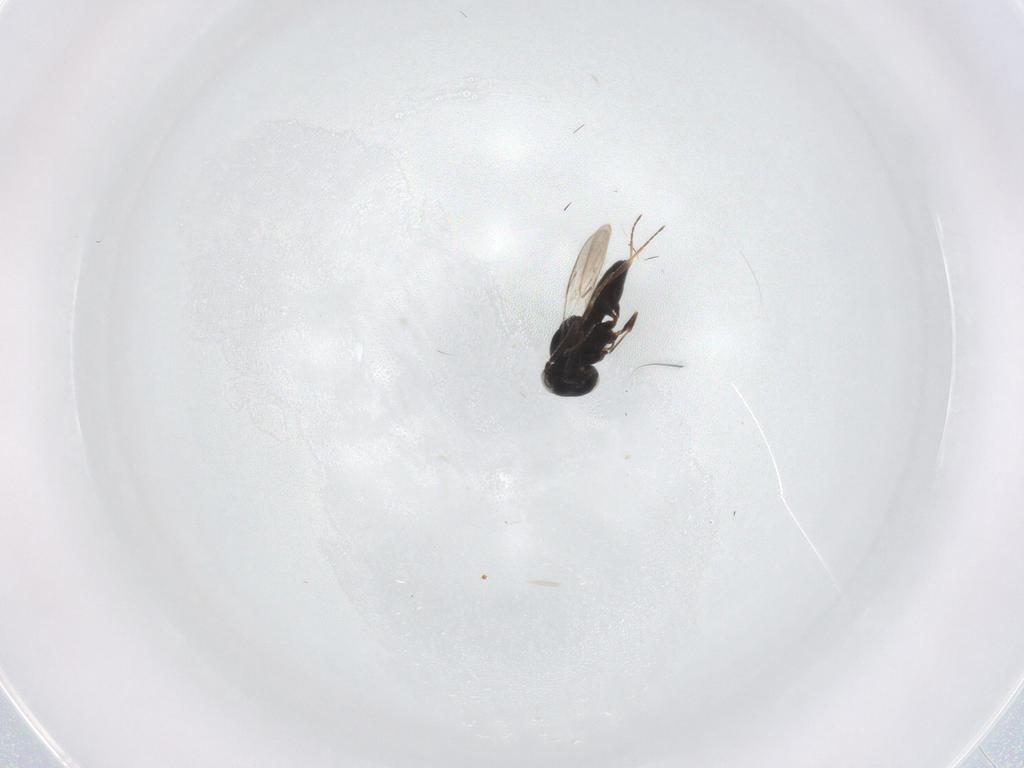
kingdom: Animalia
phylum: Arthropoda
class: Insecta
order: Hymenoptera
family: Scelionidae
